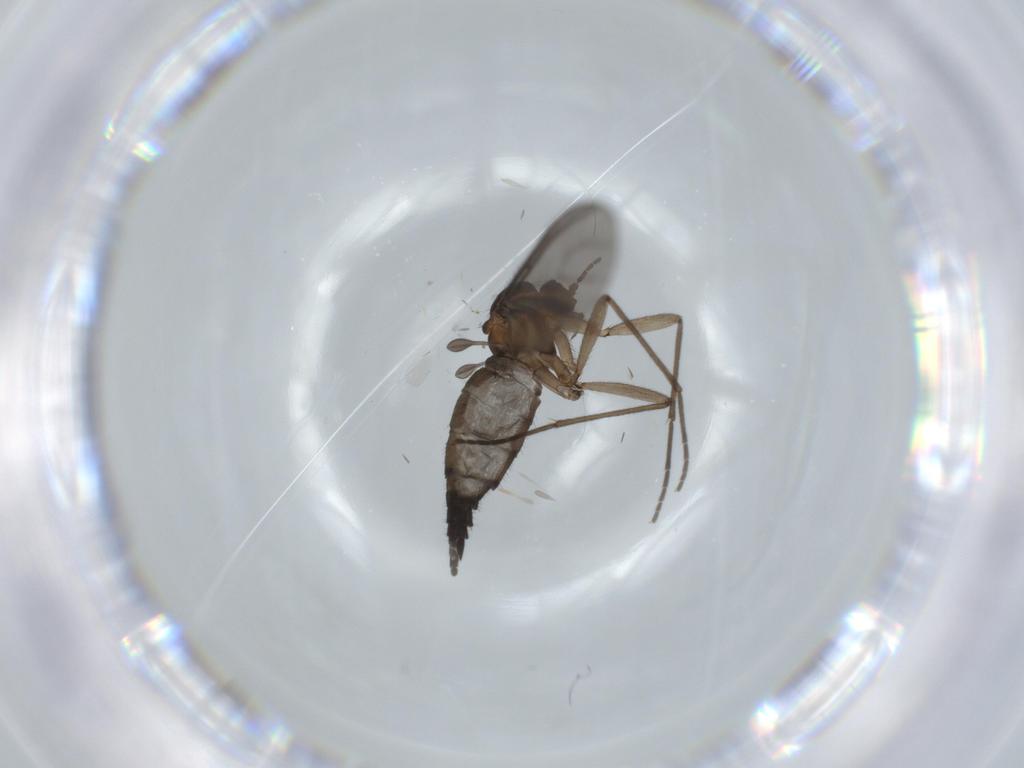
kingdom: Animalia
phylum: Arthropoda
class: Insecta
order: Diptera
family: Sciaridae
